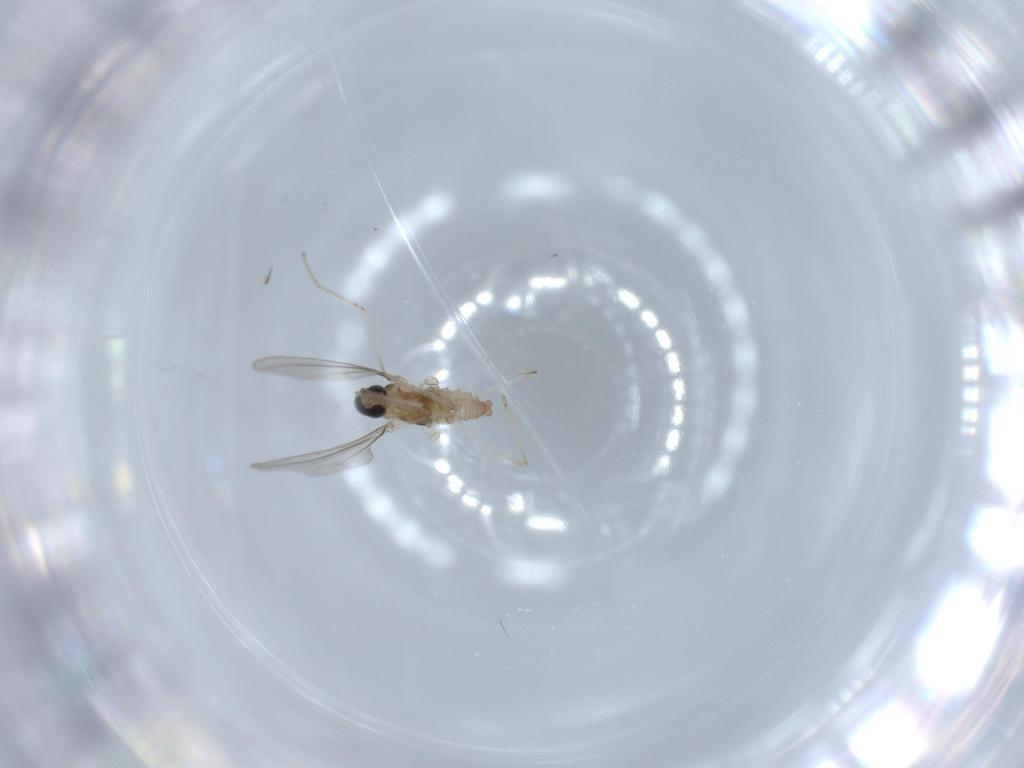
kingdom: Animalia
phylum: Arthropoda
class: Insecta
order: Diptera
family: Cecidomyiidae
